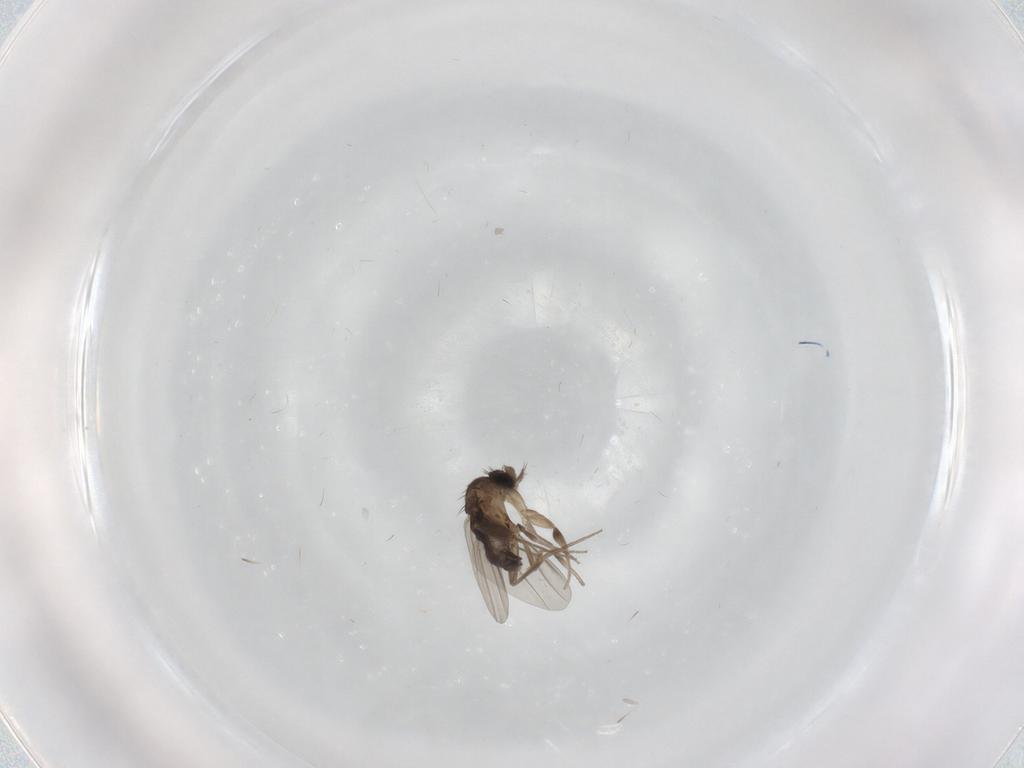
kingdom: Animalia
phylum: Arthropoda
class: Insecta
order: Diptera
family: Phoridae
